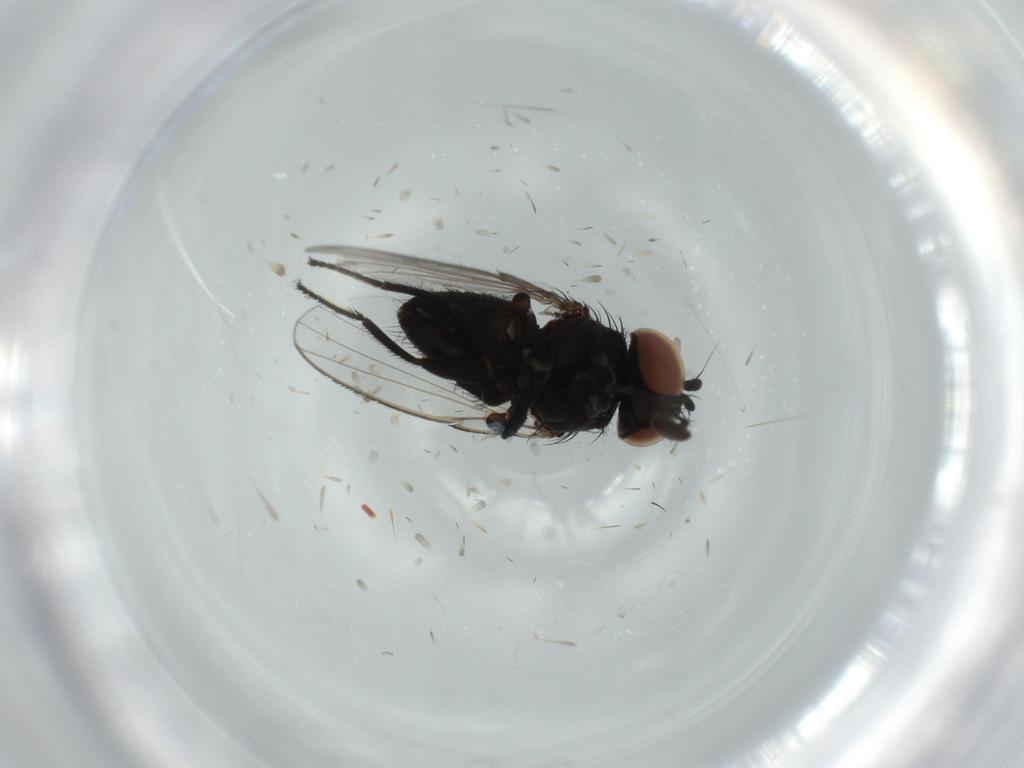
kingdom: Animalia
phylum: Arthropoda
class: Insecta
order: Diptera
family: Milichiidae
